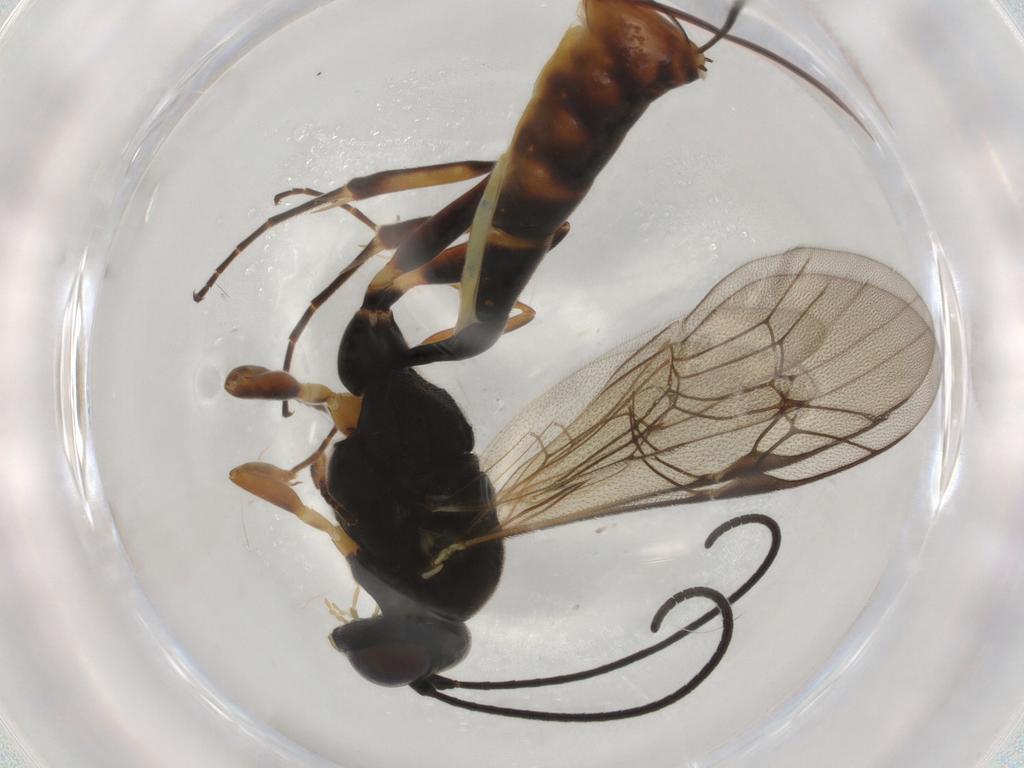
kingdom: Animalia
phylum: Arthropoda
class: Insecta
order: Hymenoptera
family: Ichneumonidae
